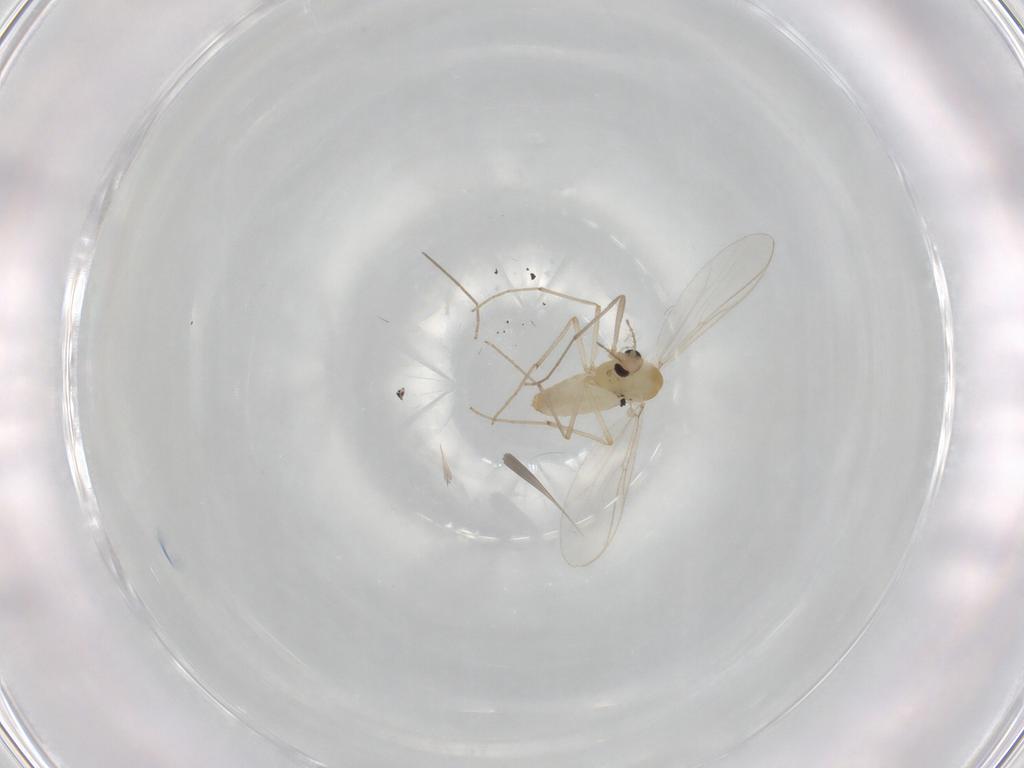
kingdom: Animalia
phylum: Arthropoda
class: Insecta
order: Diptera
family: Chironomidae
